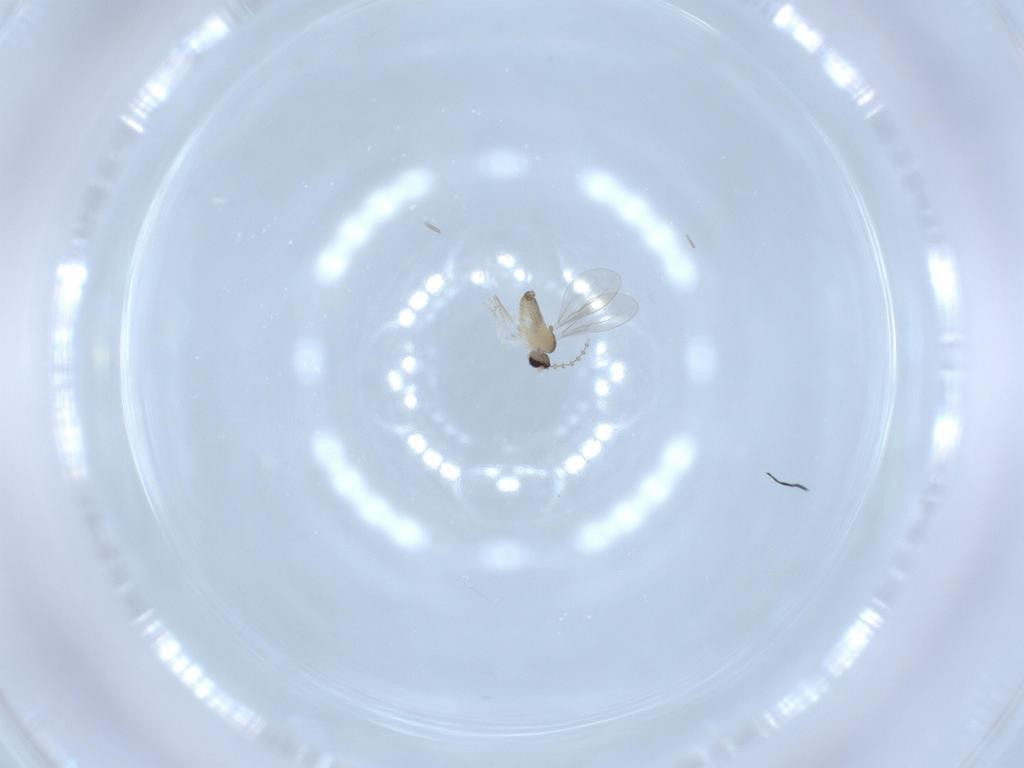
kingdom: Animalia
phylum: Arthropoda
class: Insecta
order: Diptera
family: Cecidomyiidae
